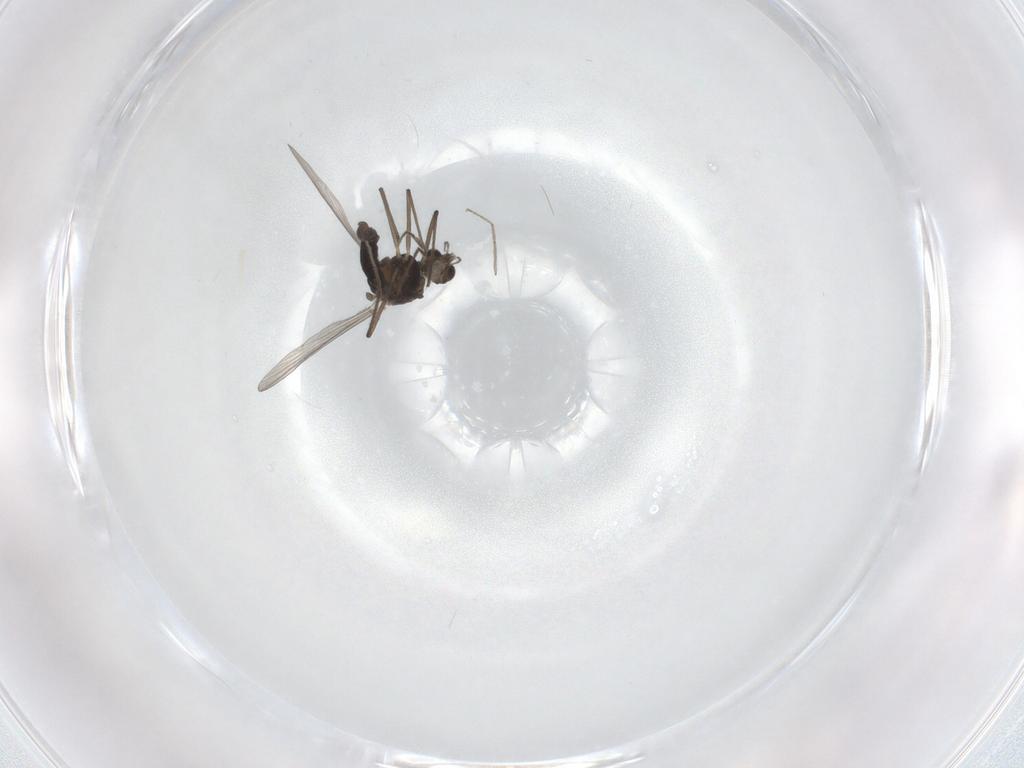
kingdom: Animalia
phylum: Arthropoda
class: Insecta
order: Diptera
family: Chironomidae
